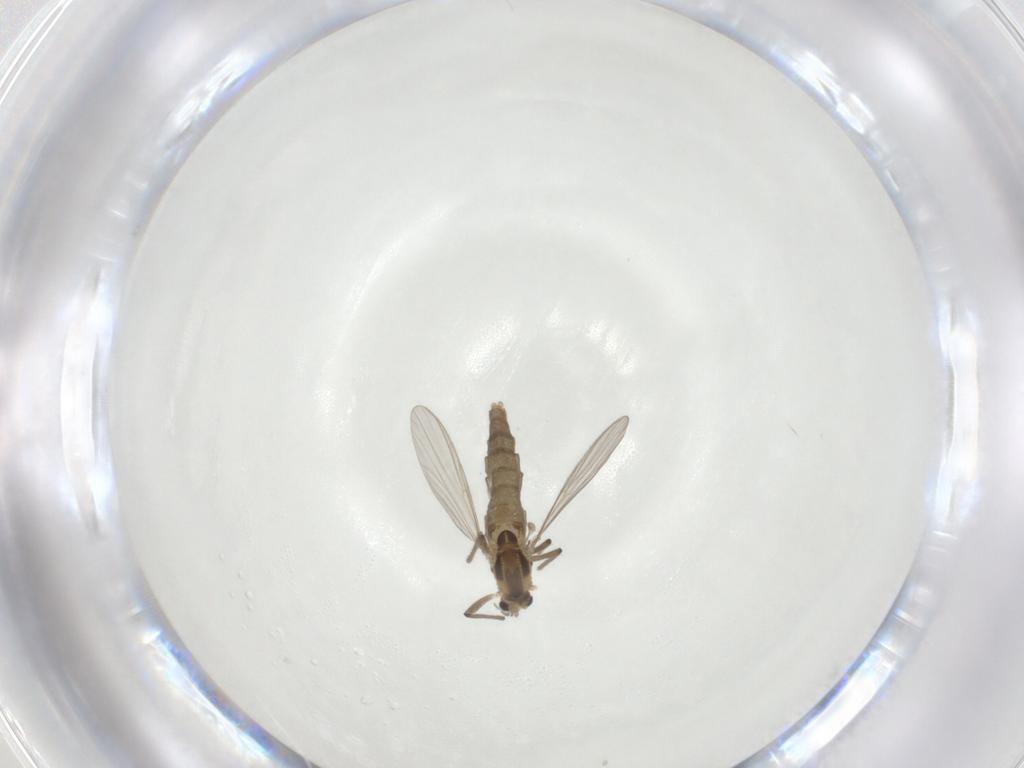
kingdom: Animalia
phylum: Arthropoda
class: Insecta
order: Diptera
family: Chironomidae
